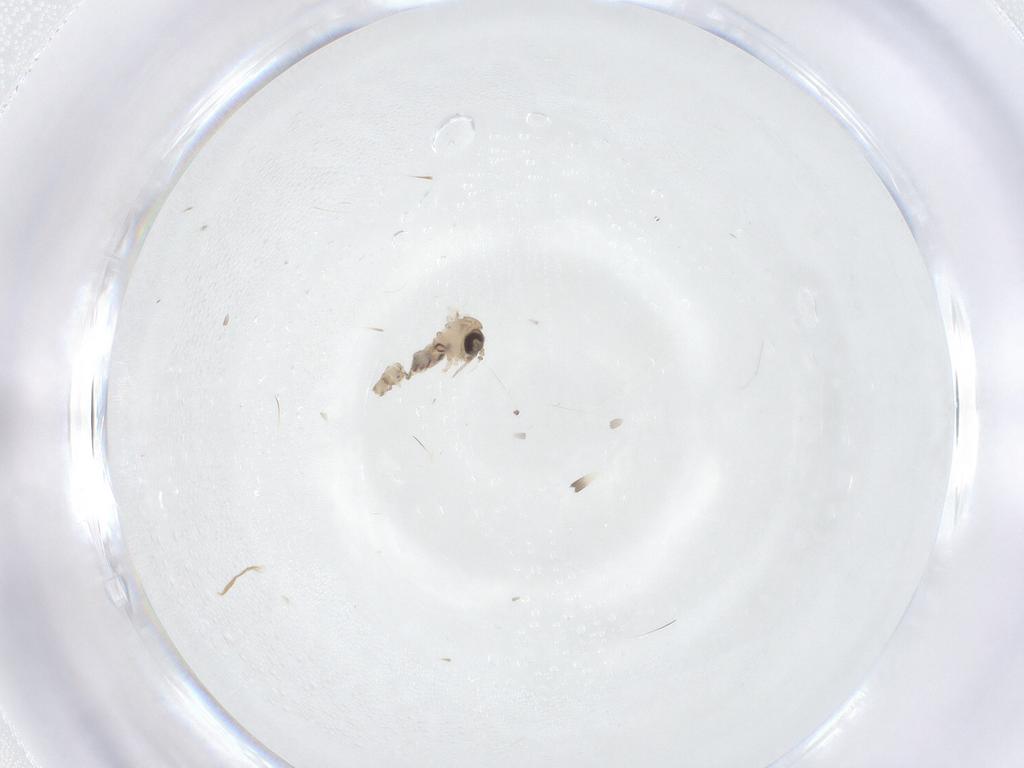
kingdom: Animalia
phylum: Arthropoda
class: Insecta
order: Diptera
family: Psychodidae
